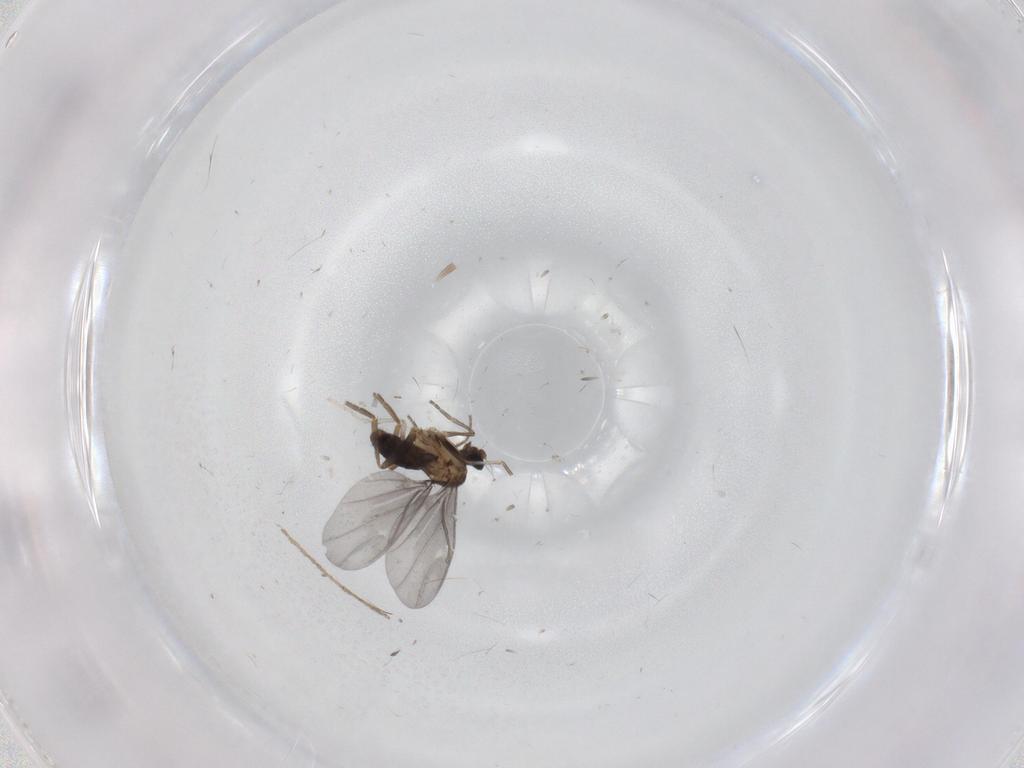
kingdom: Animalia
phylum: Arthropoda
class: Insecta
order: Diptera
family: Phoridae
